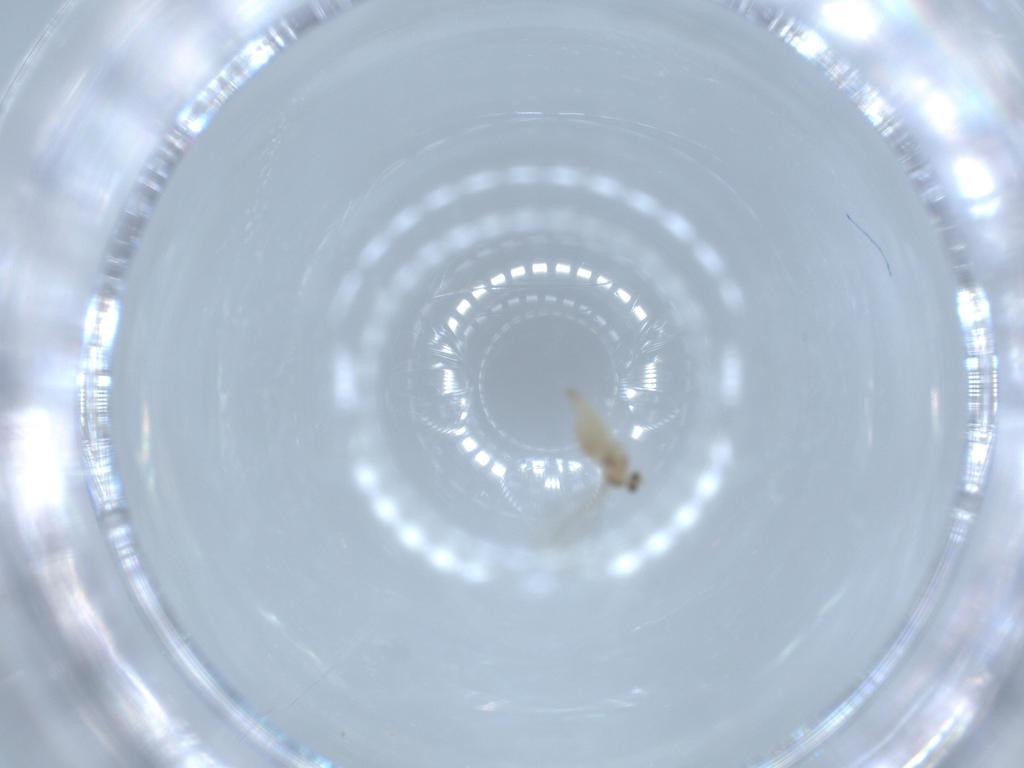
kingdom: Animalia
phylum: Arthropoda
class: Insecta
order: Diptera
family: Cecidomyiidae
